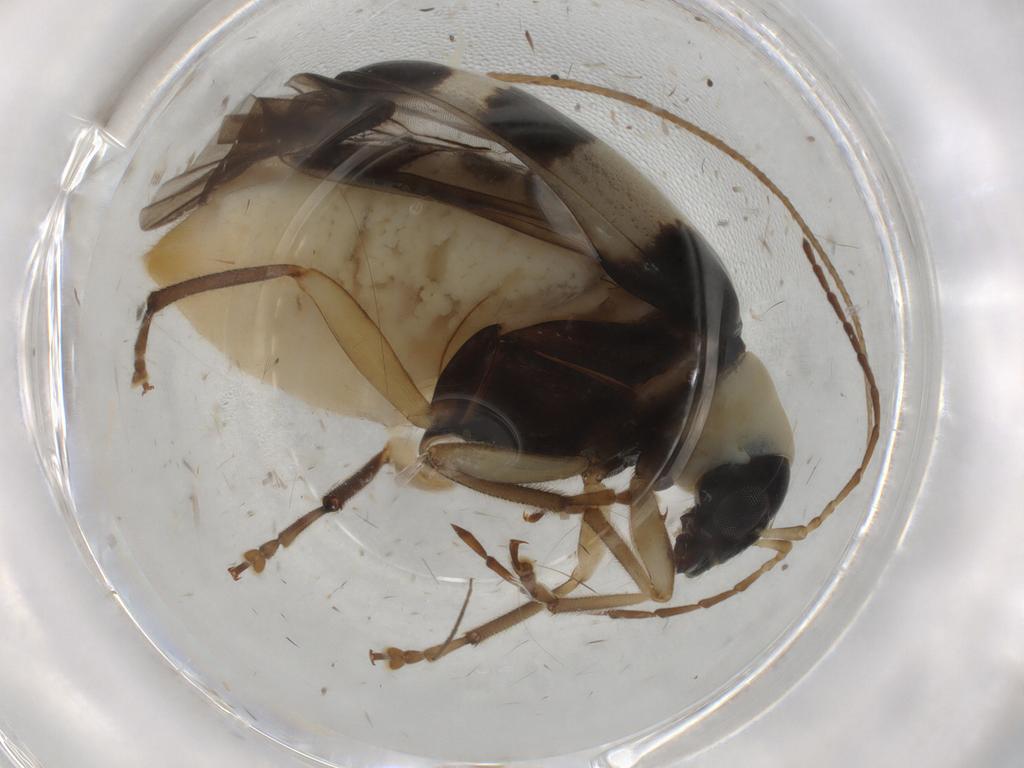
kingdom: Animalia
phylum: Arthropoda
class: Insecta
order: Coleoptera
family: Chrysomelidae
